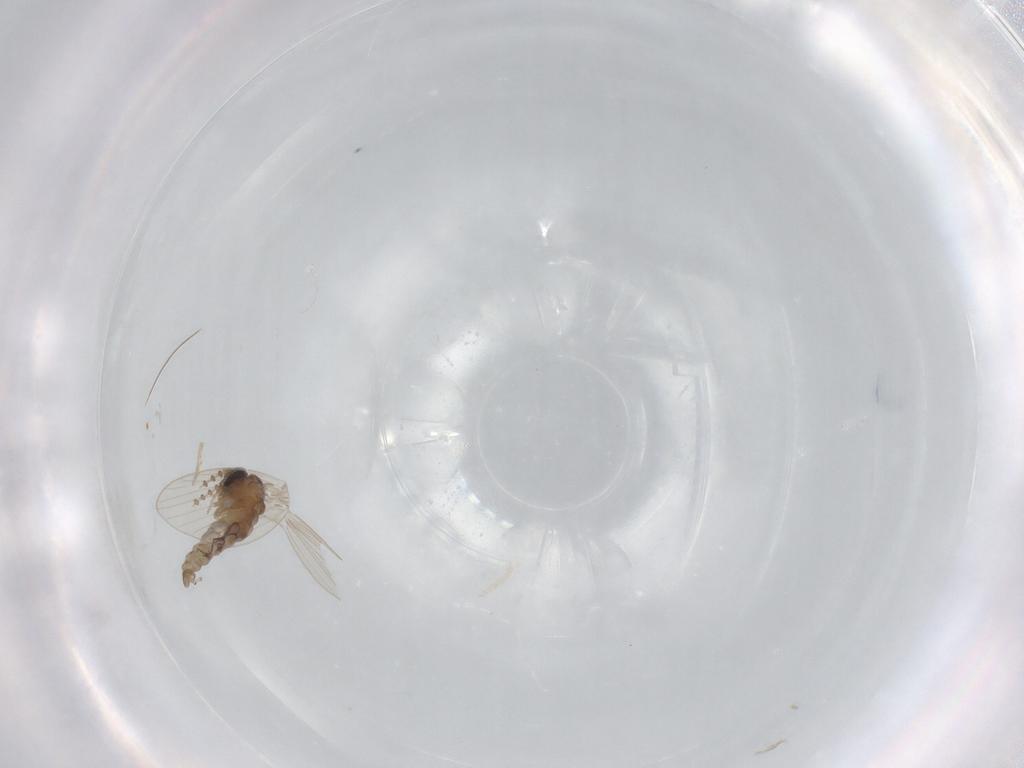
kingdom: Animalia
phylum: Arthropoda
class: Insecta
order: Diptera
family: Psychodidae
